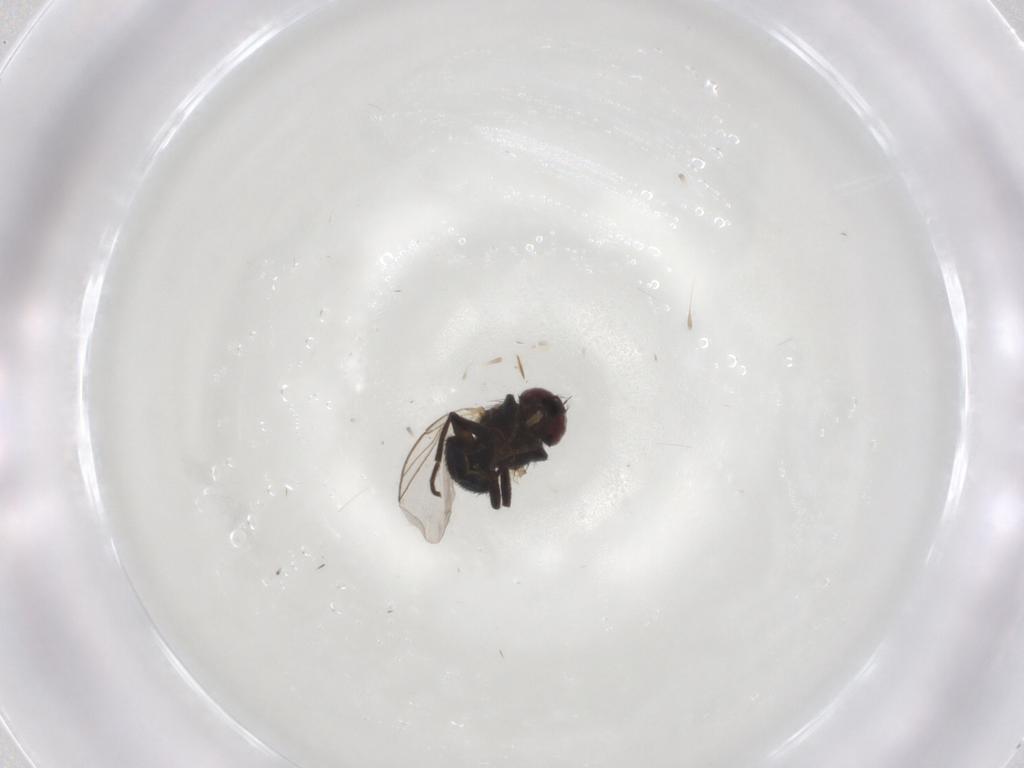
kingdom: Animalia
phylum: Arthropoda
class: Insecta
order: Diptera
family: Agromyzidae
